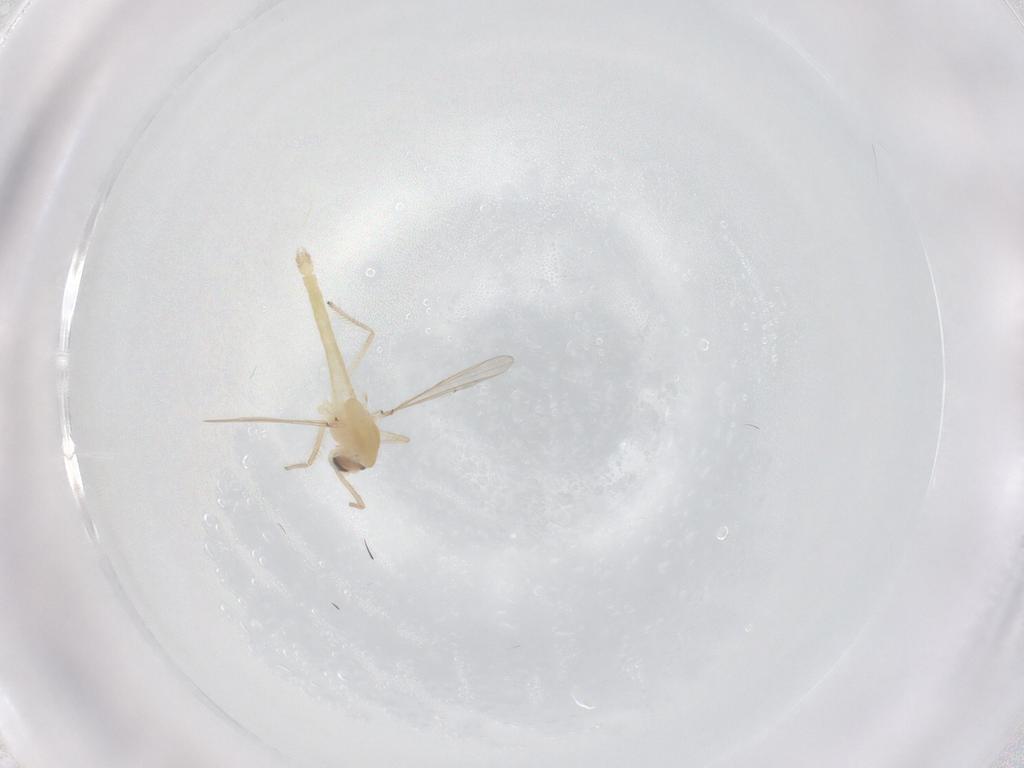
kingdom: Animalia
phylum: Arthropoda
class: Insecta
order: Diptera
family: Chironomidae
